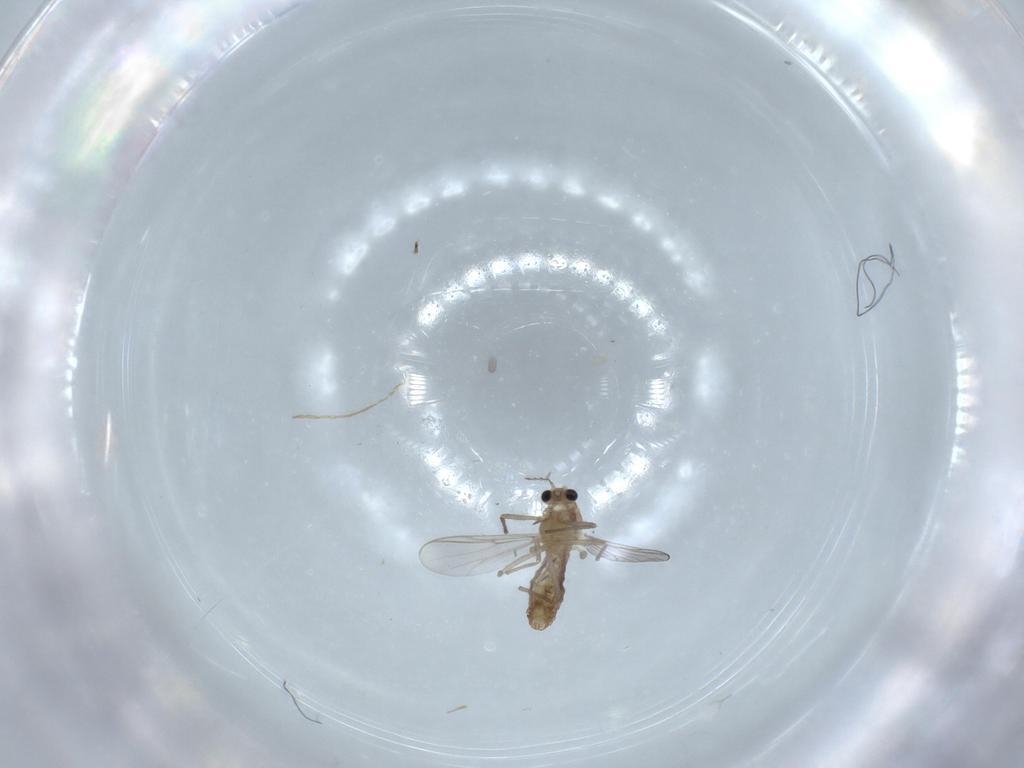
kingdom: Animalia
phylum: Arthropoda
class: Insecta
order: Diptera
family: Chironomidae
